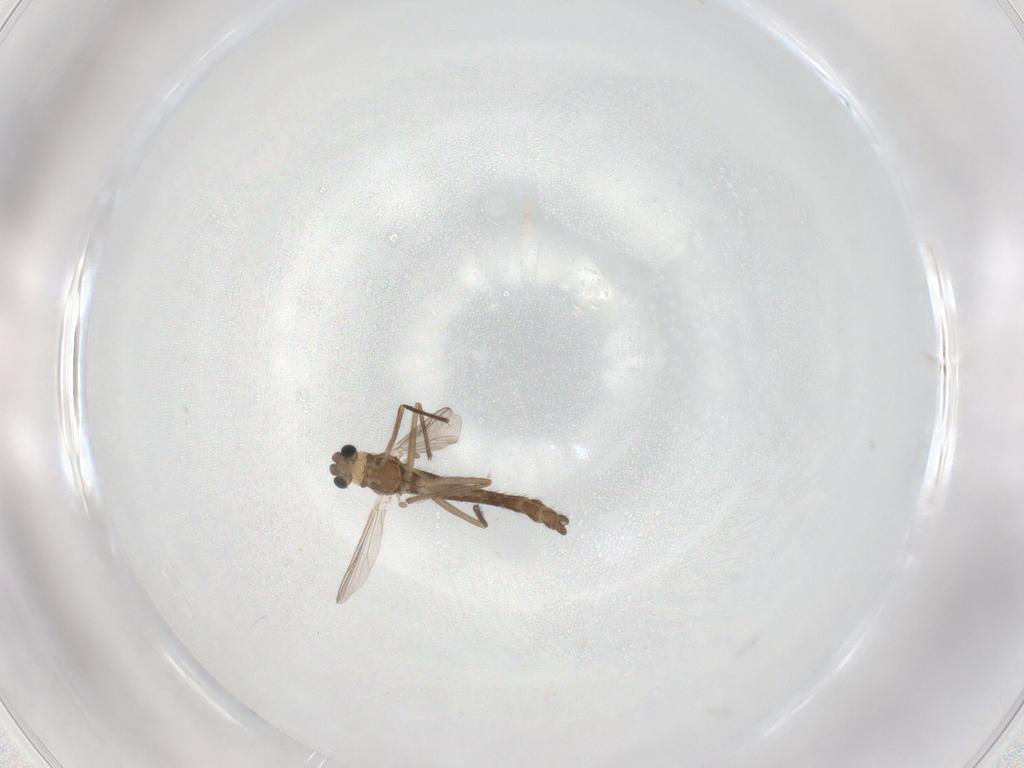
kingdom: Animalia
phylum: Arthropoda
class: Insecta
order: Diptera
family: Chironomidae
